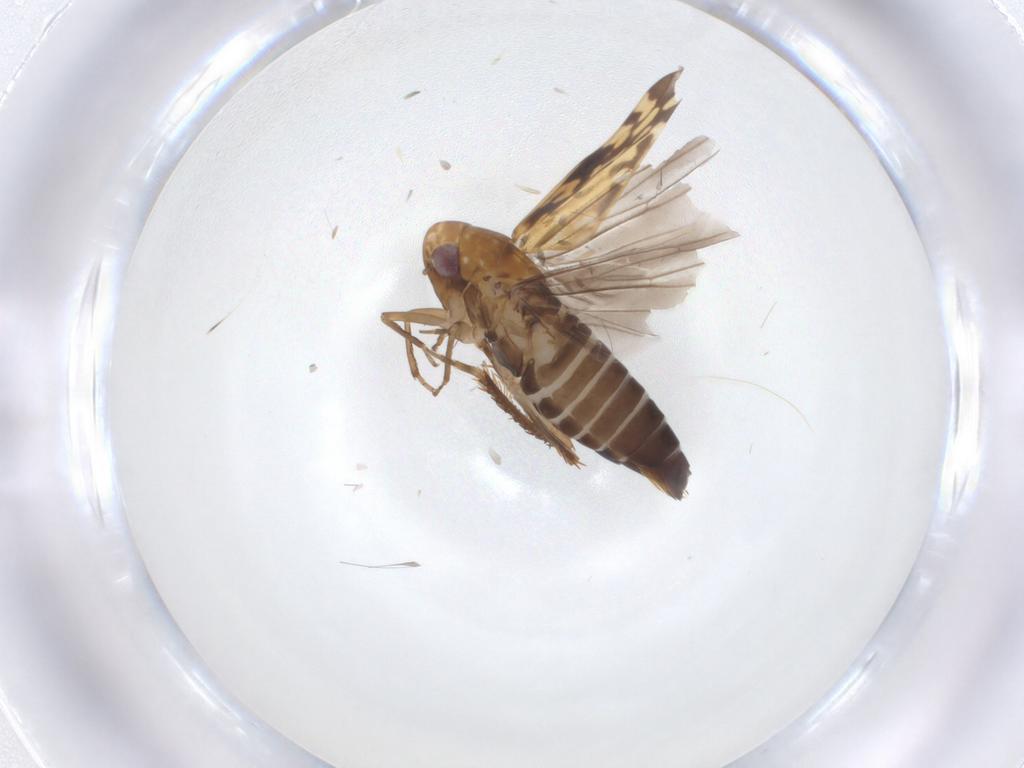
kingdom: Animalia
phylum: Arthropoda
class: Insecta
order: Hemiptera
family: Cicadellidae
